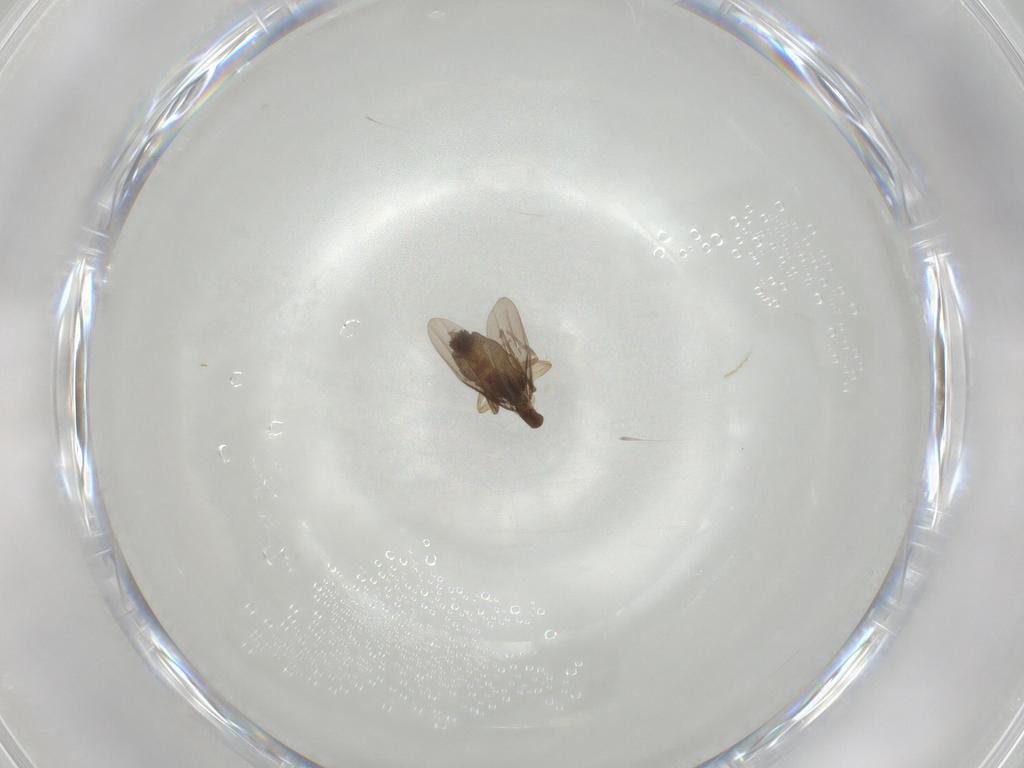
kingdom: Animalia
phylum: Arthropoda
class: Insecta
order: Diptera
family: Phoridae
